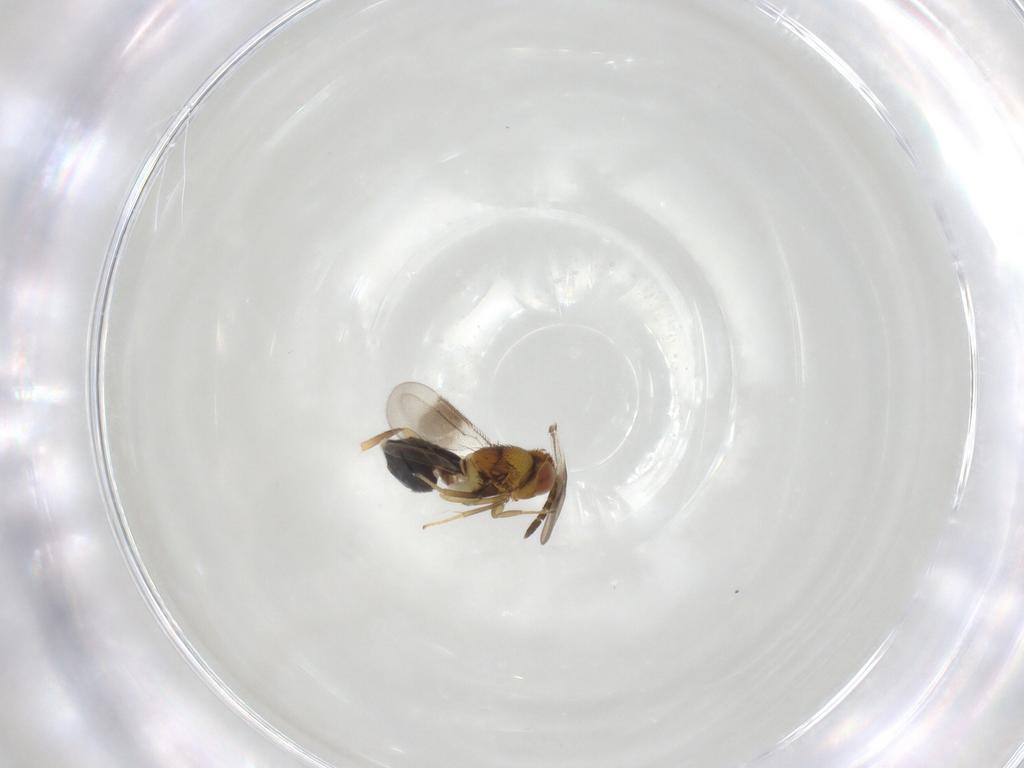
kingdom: Animalia
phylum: Arthropoda
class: Insecta
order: Hymenoptera
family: Aphelinidae
